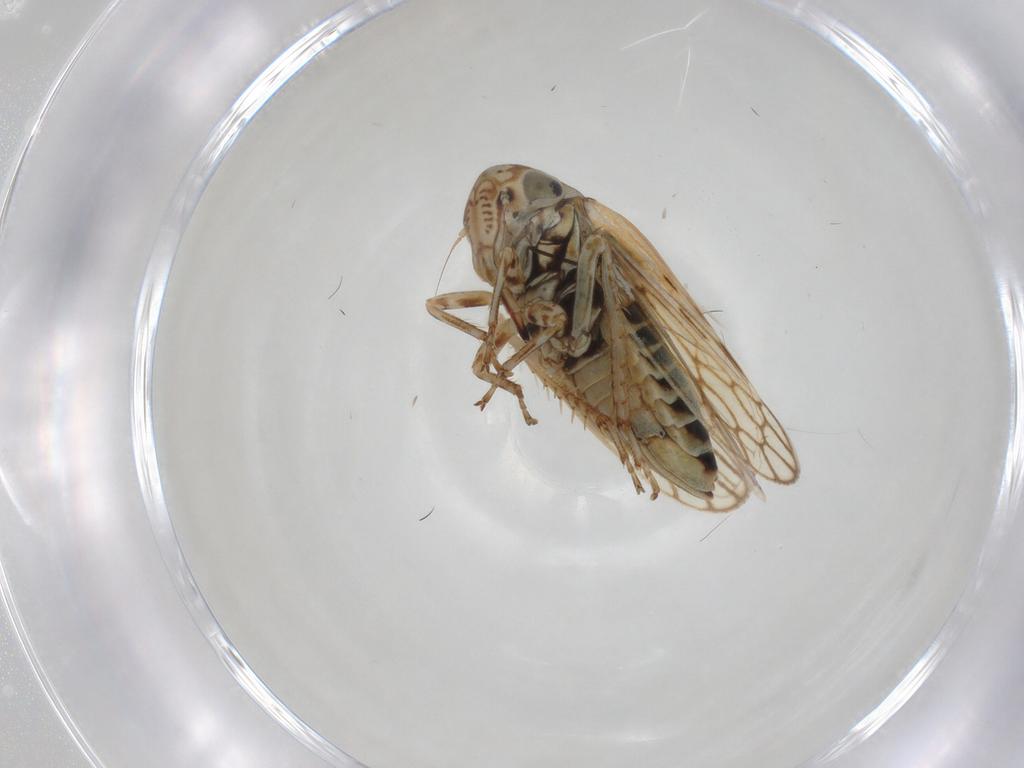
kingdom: Animalia
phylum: Arthropoda
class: Insecta
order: Hemiptera
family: Cicadellidae
